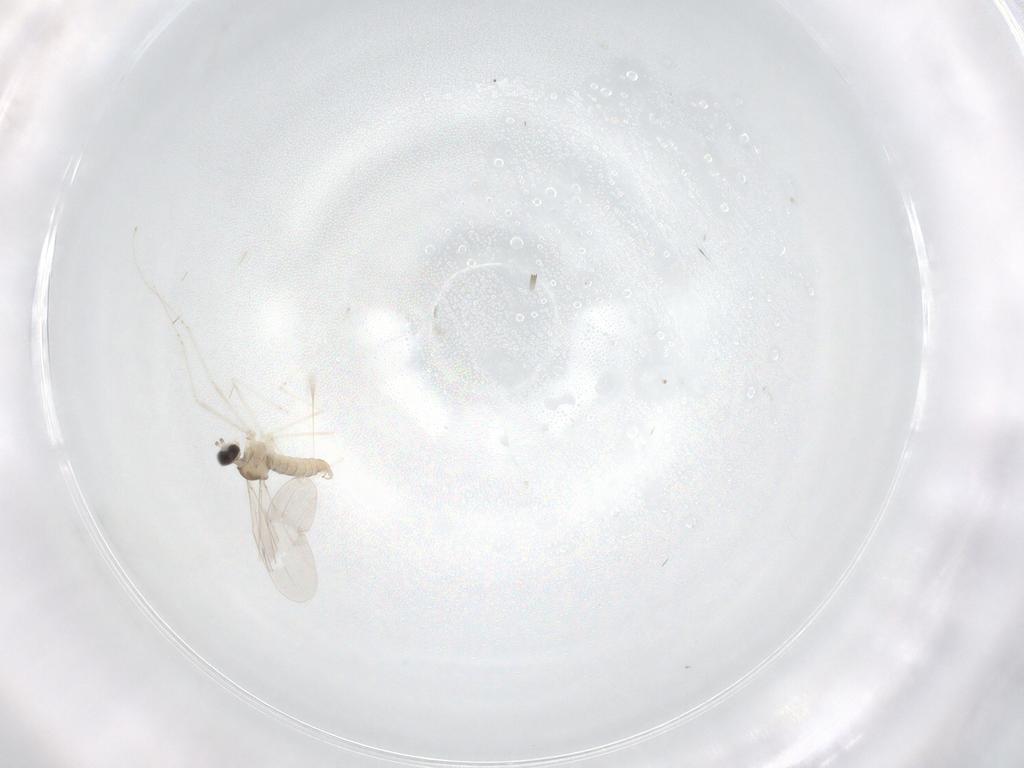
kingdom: Animalia
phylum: Arthropoda
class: Insecta
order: Diptera
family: Cecidomyiidae
